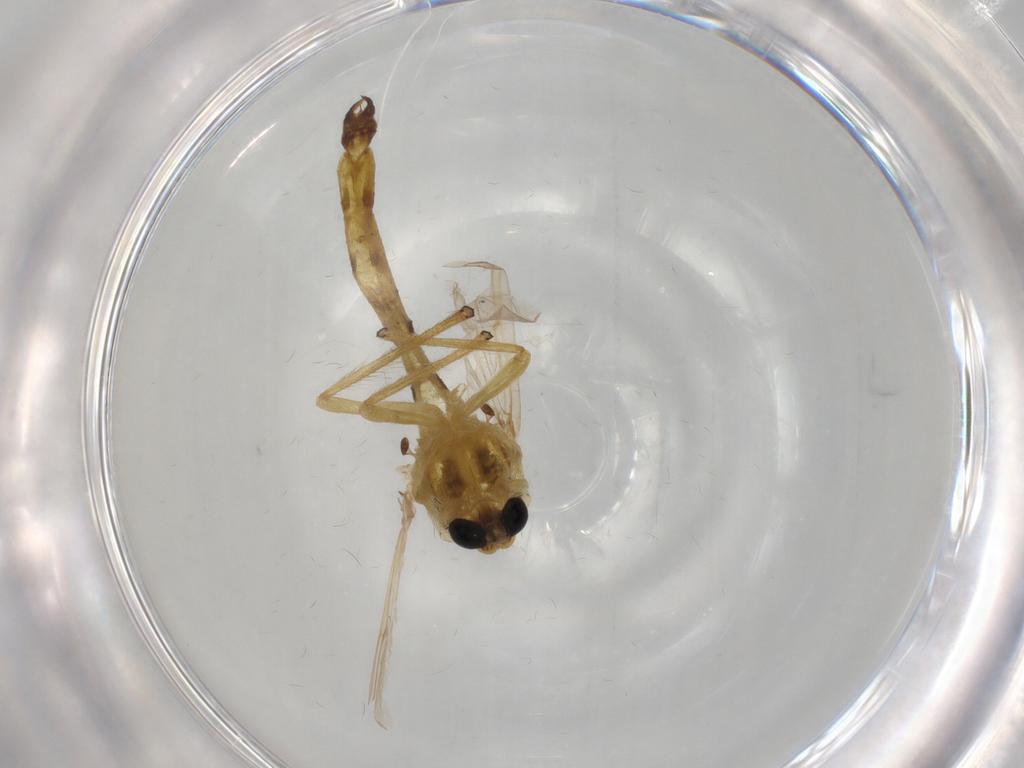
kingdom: Animalia
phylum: Arthropoda
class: Insecta
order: Diptera
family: Muscidae
